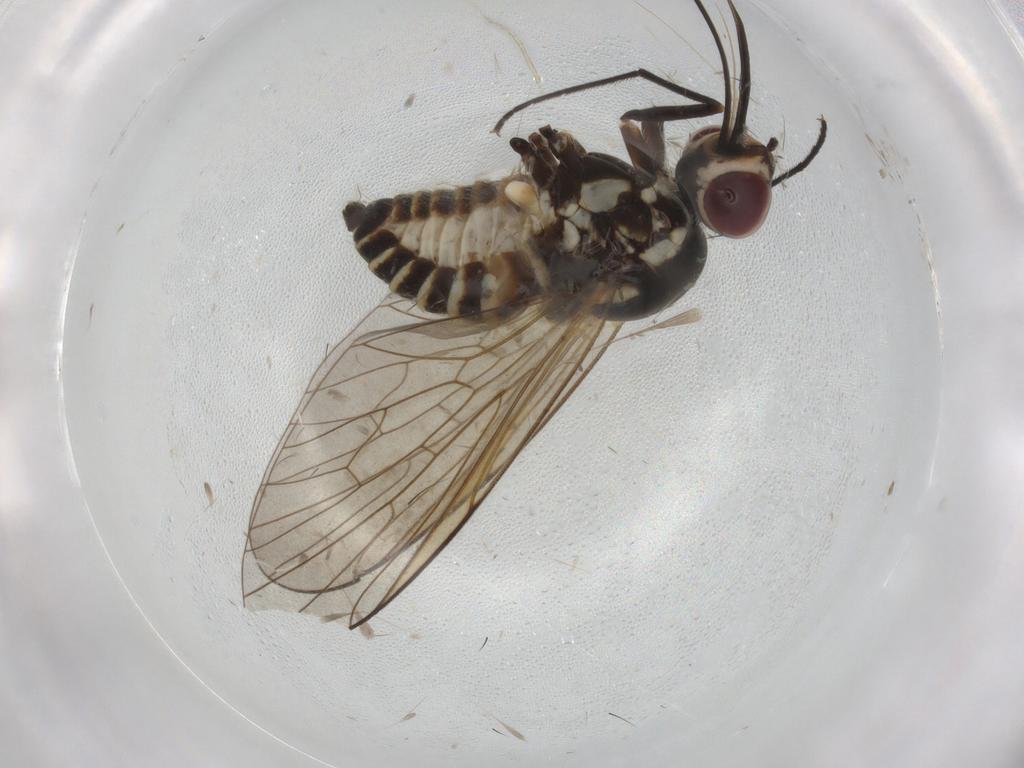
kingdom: Animalia
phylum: Arthropoda
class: Insecta
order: Diptera
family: Bombyliidae
